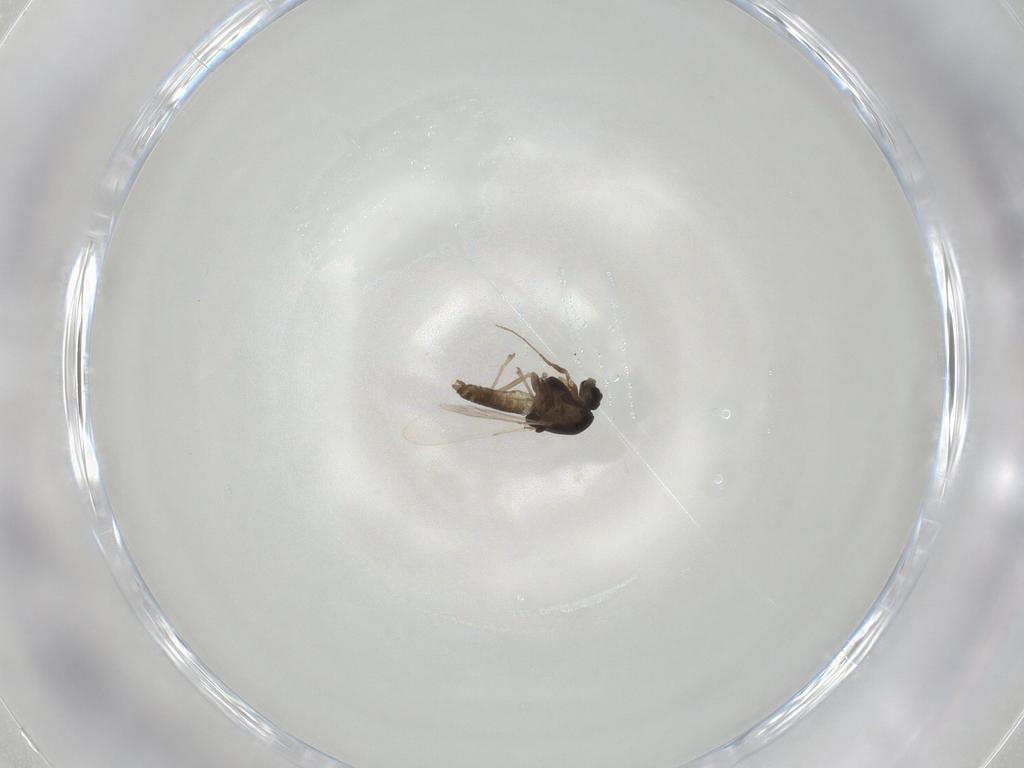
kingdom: Animalia
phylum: Arthropoda
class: Insecta
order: Diptera
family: Chironomidae
